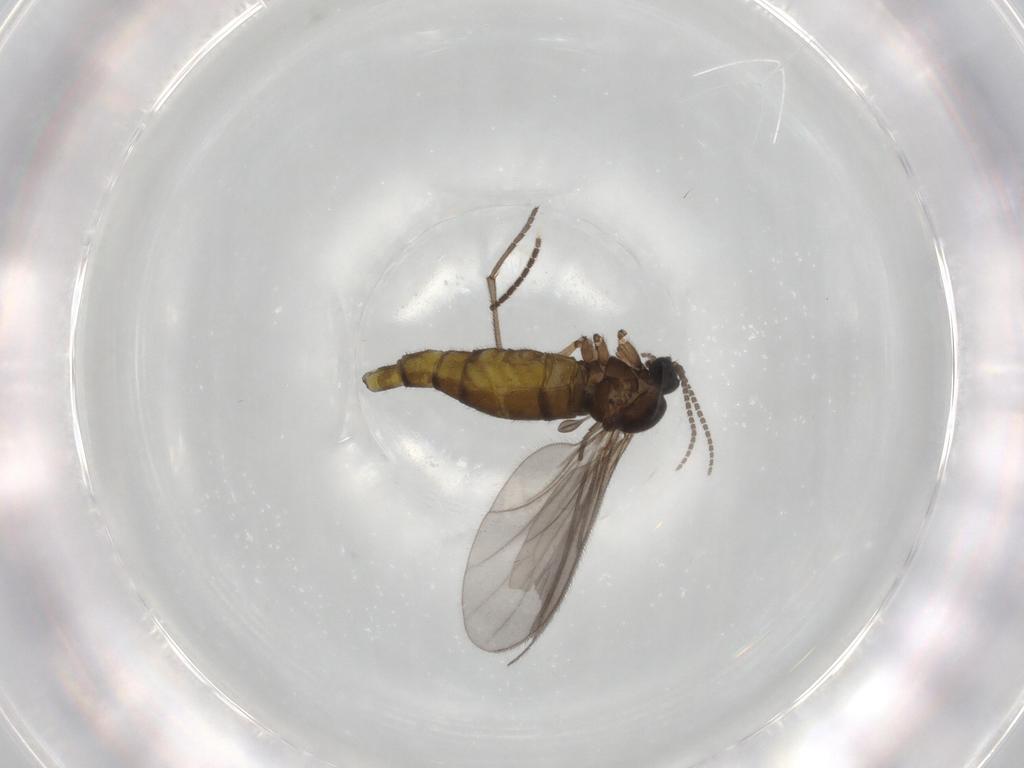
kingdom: Animalia
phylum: Arthropoda
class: Insecta
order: Diptera
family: Sciaridae
